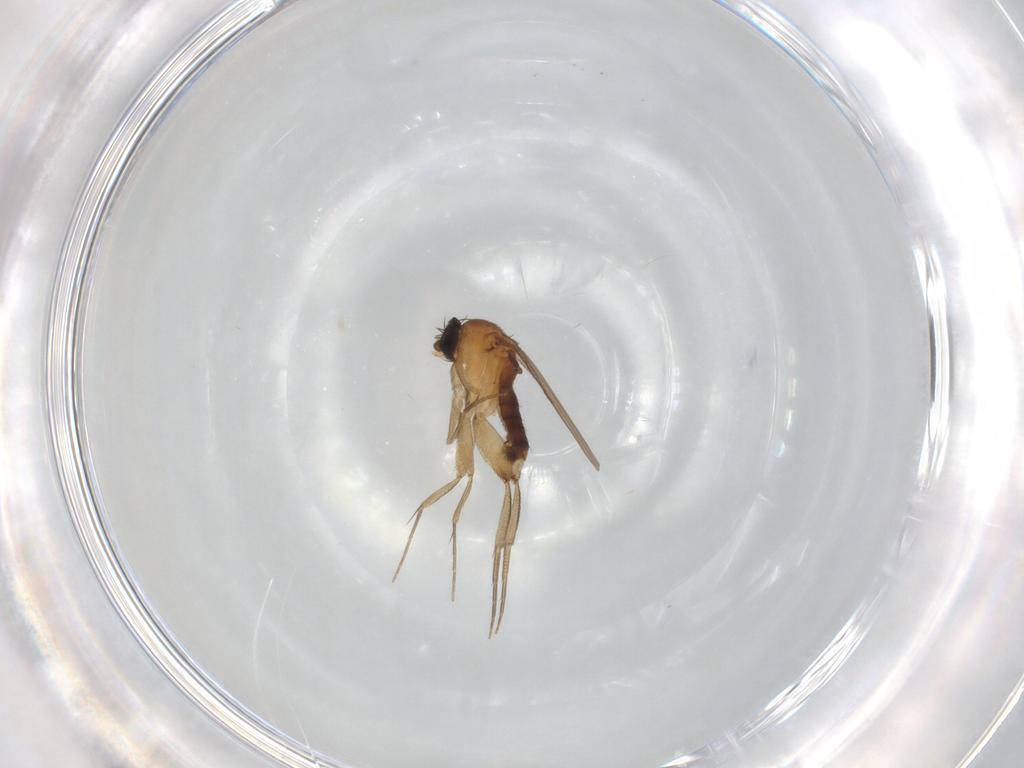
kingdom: Animalia
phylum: Arthropoda
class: Insecta
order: Diptera
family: Phoridae
